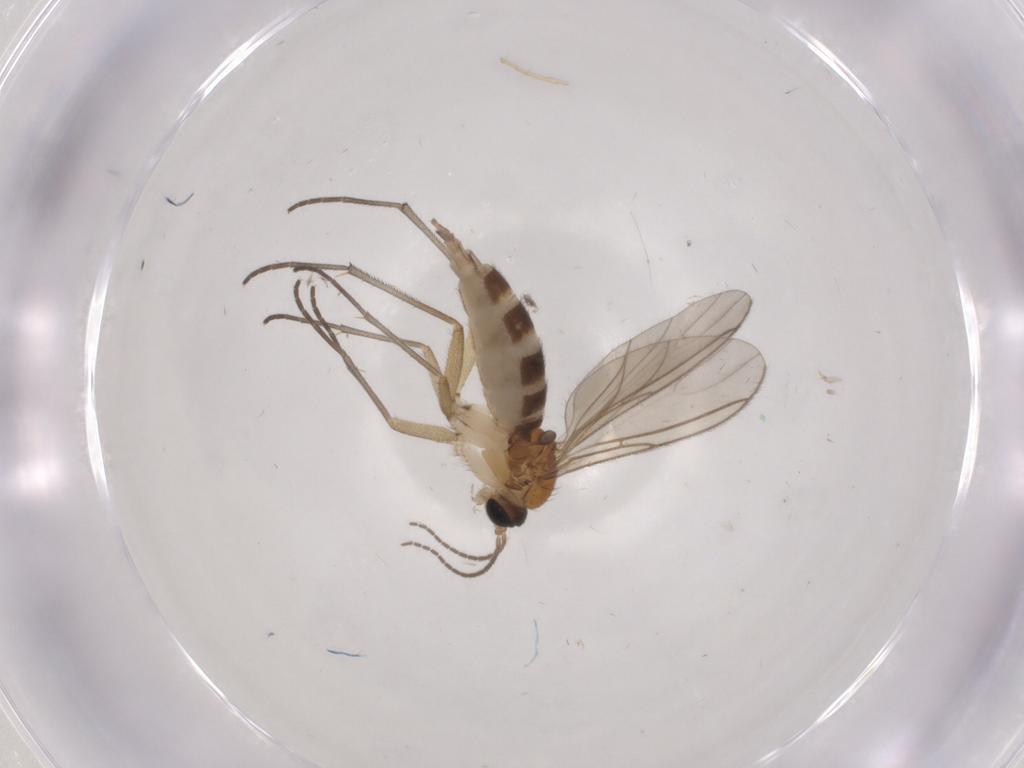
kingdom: Animalia
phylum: Arthropoda
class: Insecta
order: Diptera
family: Sciaridae
